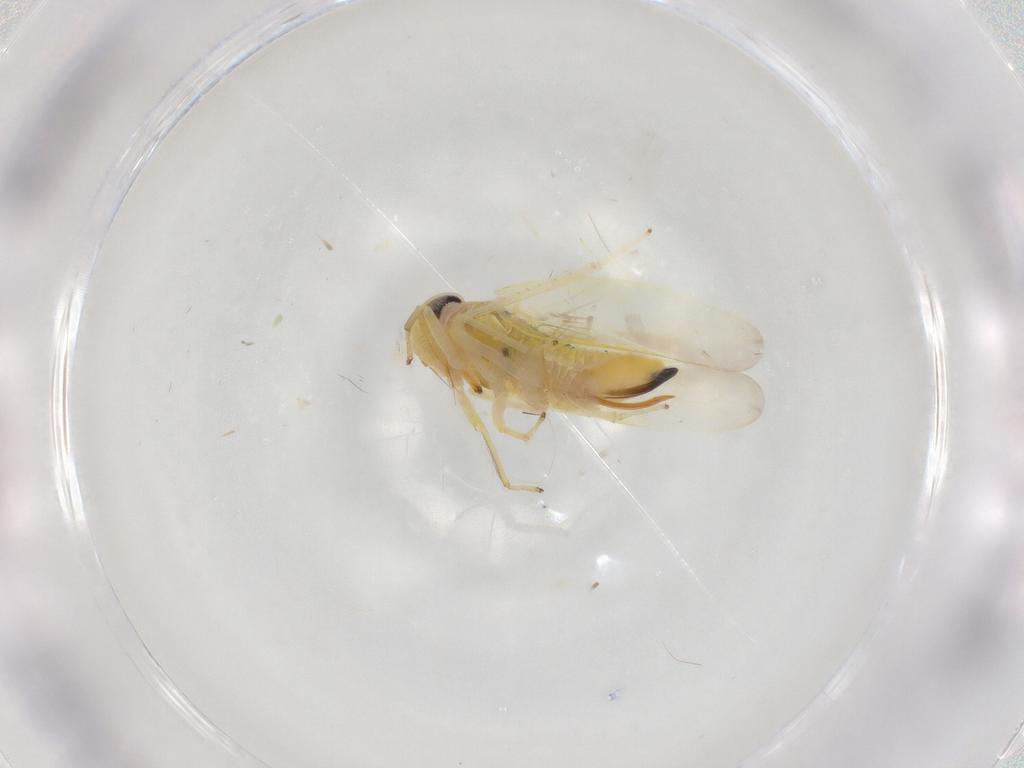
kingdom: Animalia
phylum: Arthropoda
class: Insecta
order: Hemiptera
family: Cicadellidae
